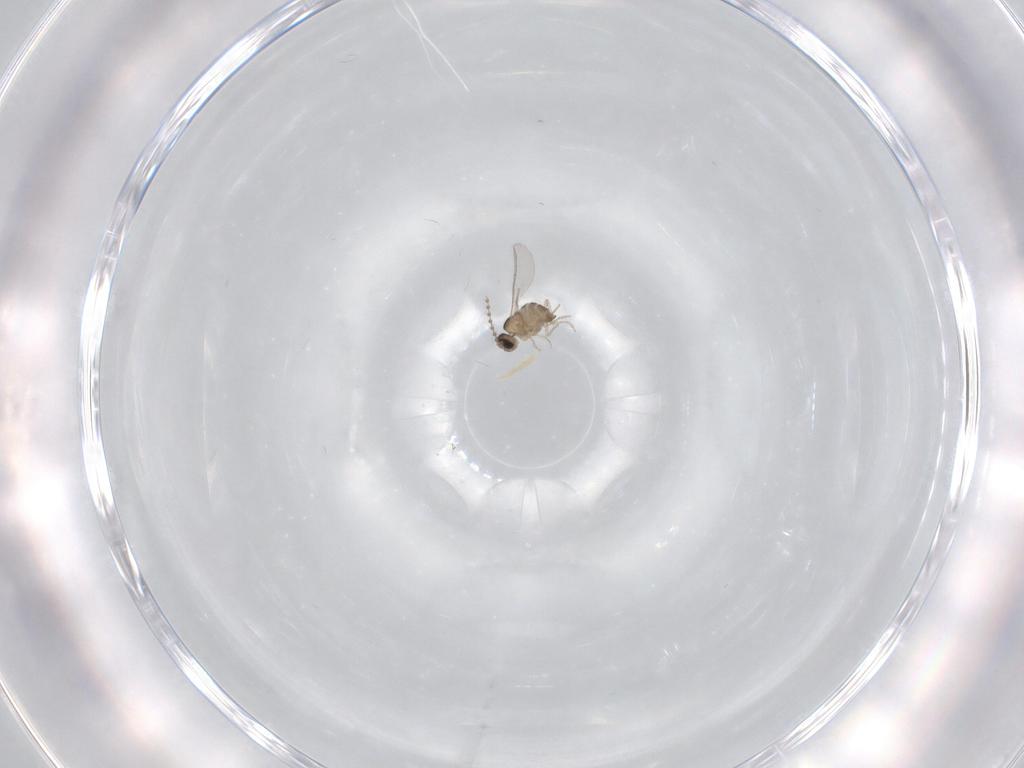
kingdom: Animalia
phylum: Arthropoda
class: Insecta
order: Diptera
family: Cecidomyiidae
